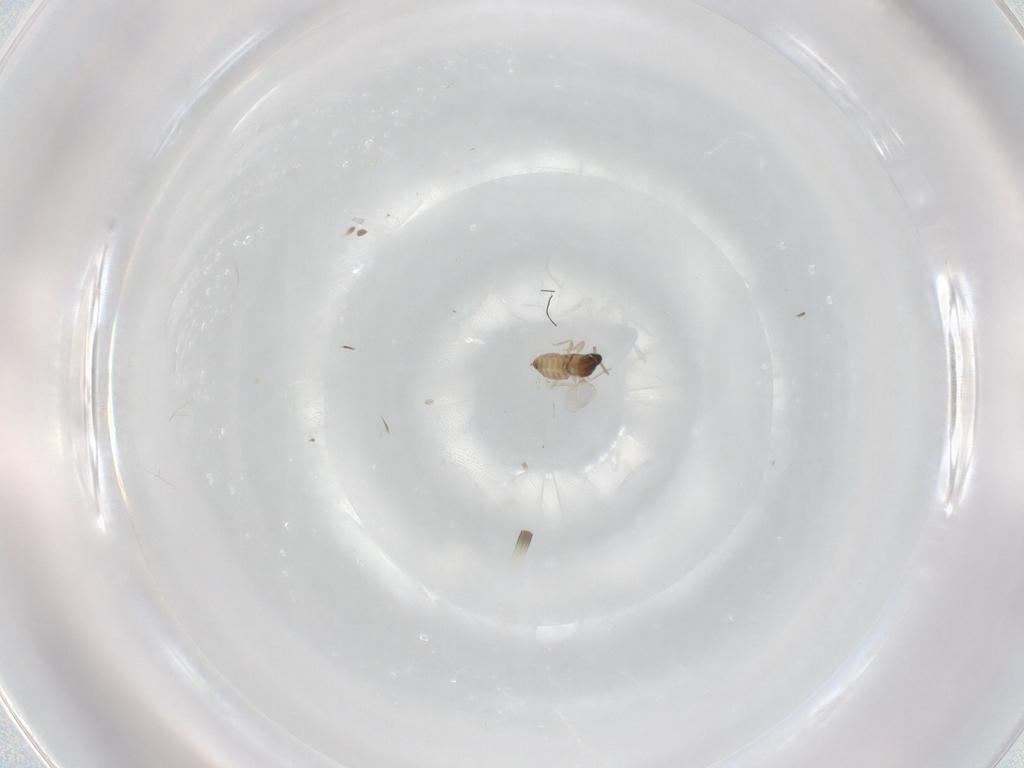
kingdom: Animalia
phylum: Arthropoda
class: Insecta
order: Diptera
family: Cecidomyiidae
